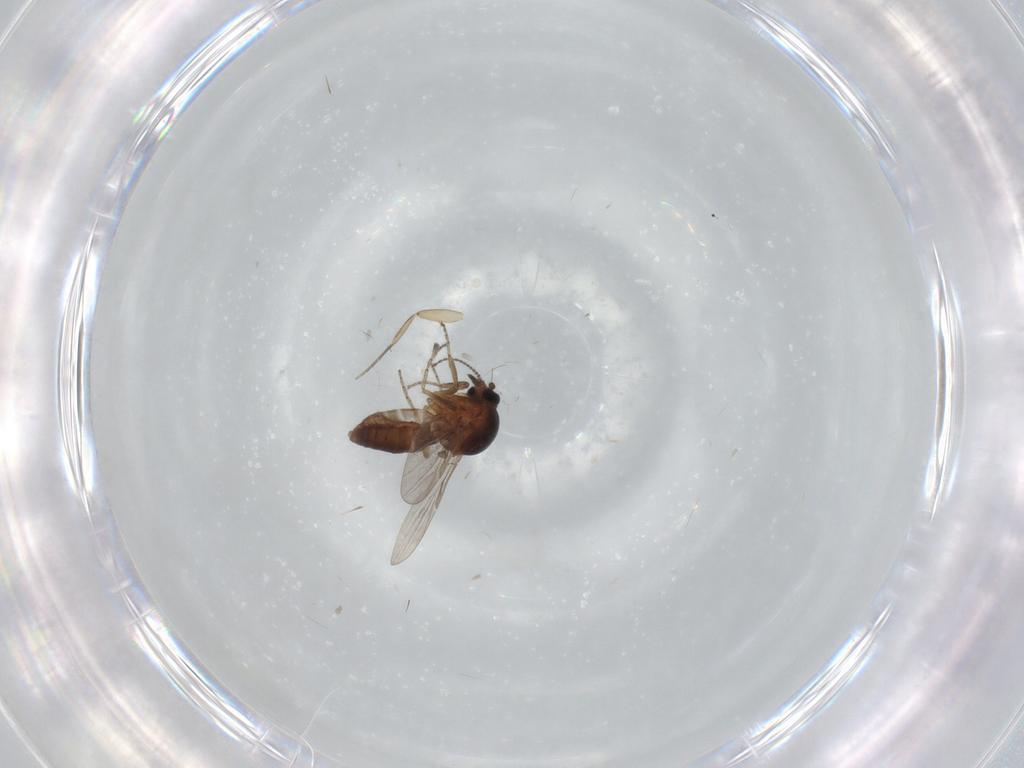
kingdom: Animalia
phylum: Arthropoda
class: Insecta
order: Diptera
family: Phoridae
